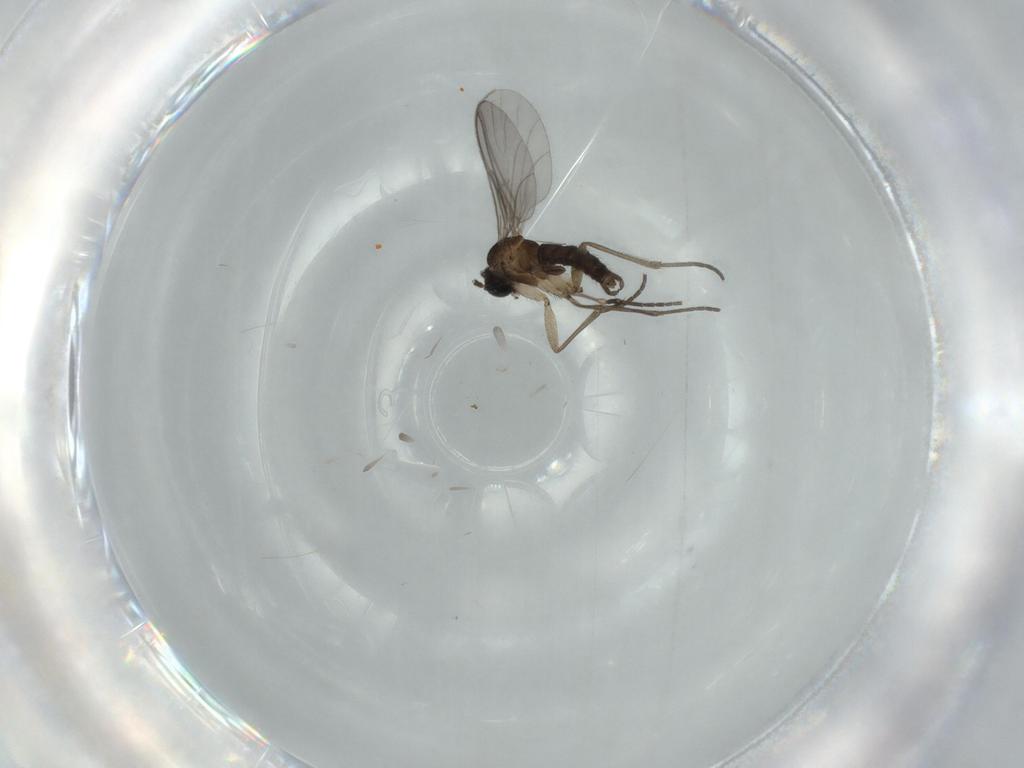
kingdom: Animalia
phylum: Arthropoda
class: Insecta
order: Diptera
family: Sciaridae
